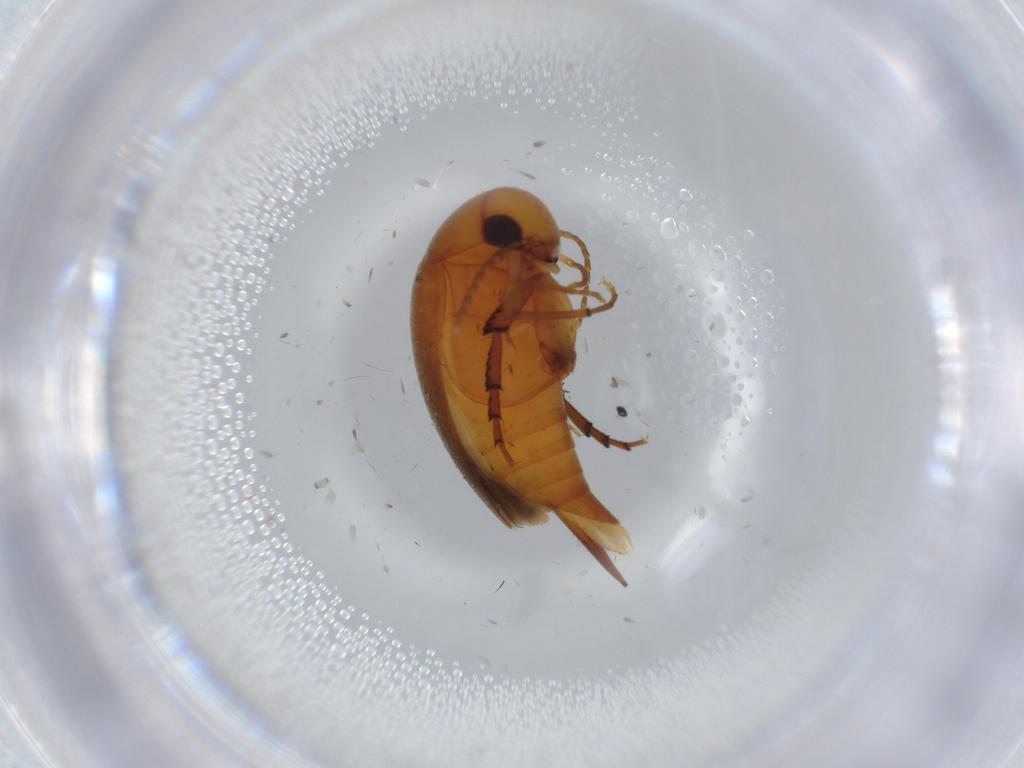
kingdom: Animalia
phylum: Arthropoda
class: Insecta
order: Coleoptera
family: Mordellidae
